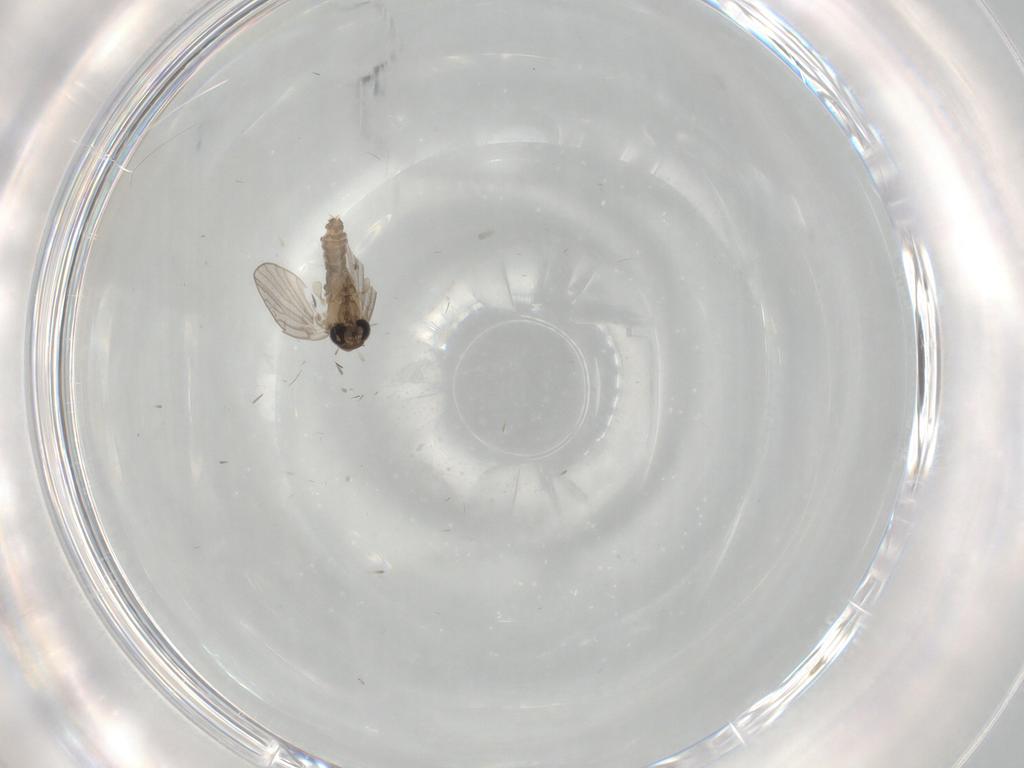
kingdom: Animalia
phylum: Arthropoda
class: Insecta
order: Diptera
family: Psychodidae
